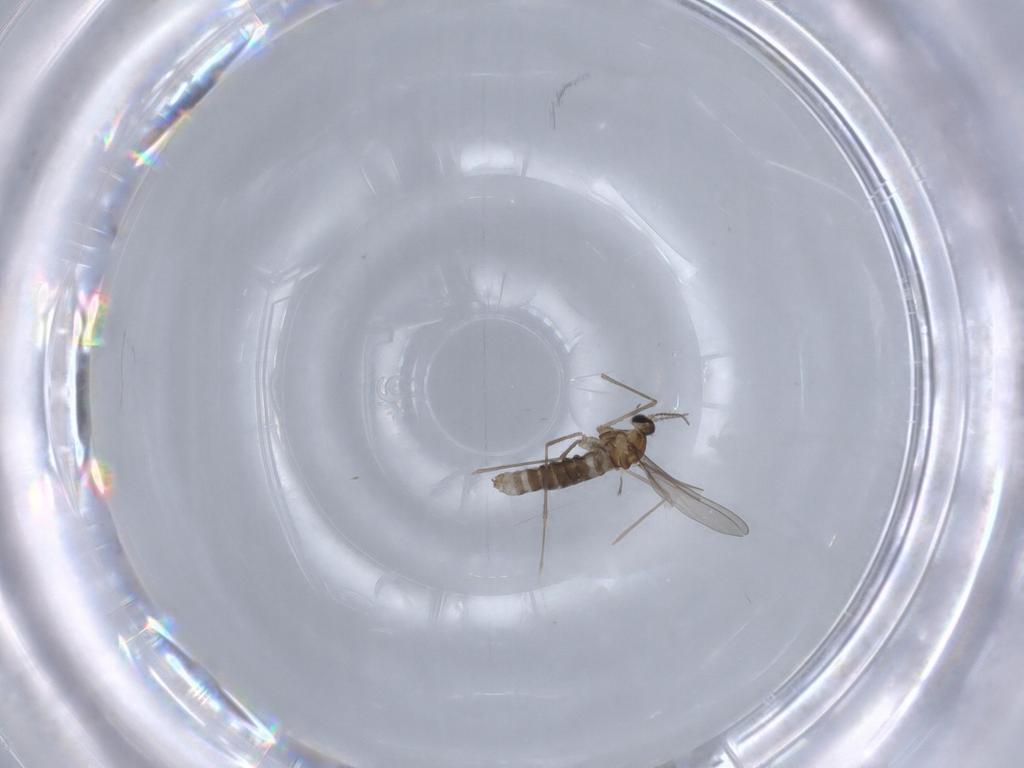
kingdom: Animalia
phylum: Arthropoda
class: Insecta
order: Diptera
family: Cecidomyiidae
